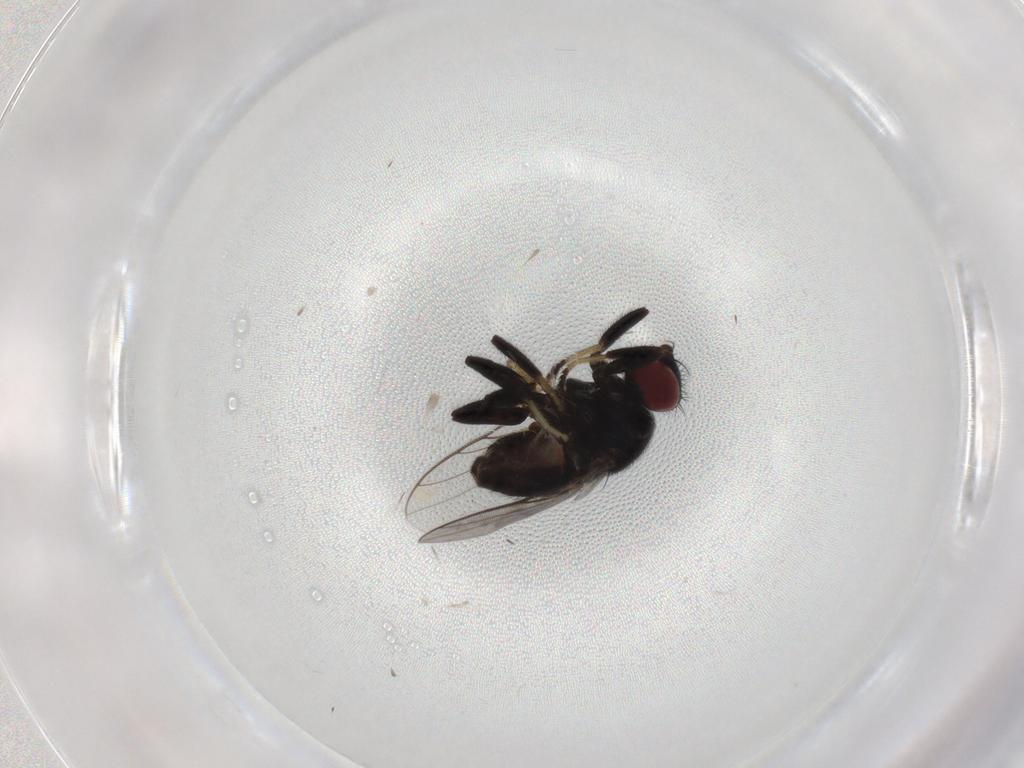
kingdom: Animalia
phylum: Arthropoda
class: Insecta
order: Diptera
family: Chloropidae
